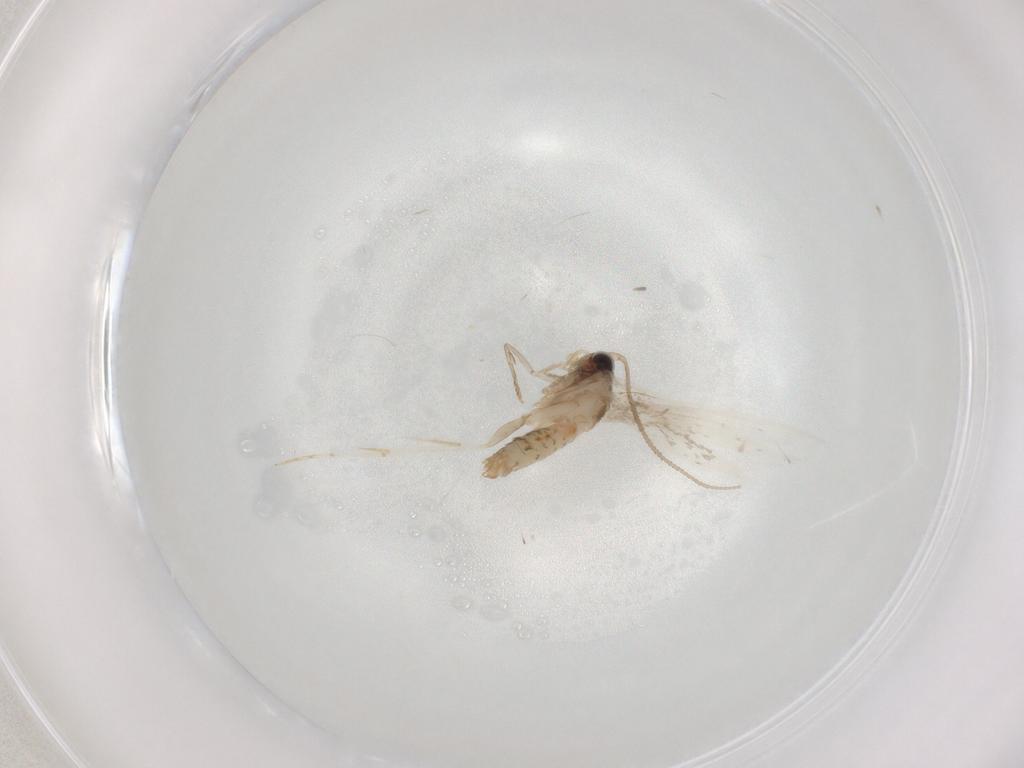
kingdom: Animalia
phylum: Arthropoda
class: Insecta
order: Lepidoptera
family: Tineidae
